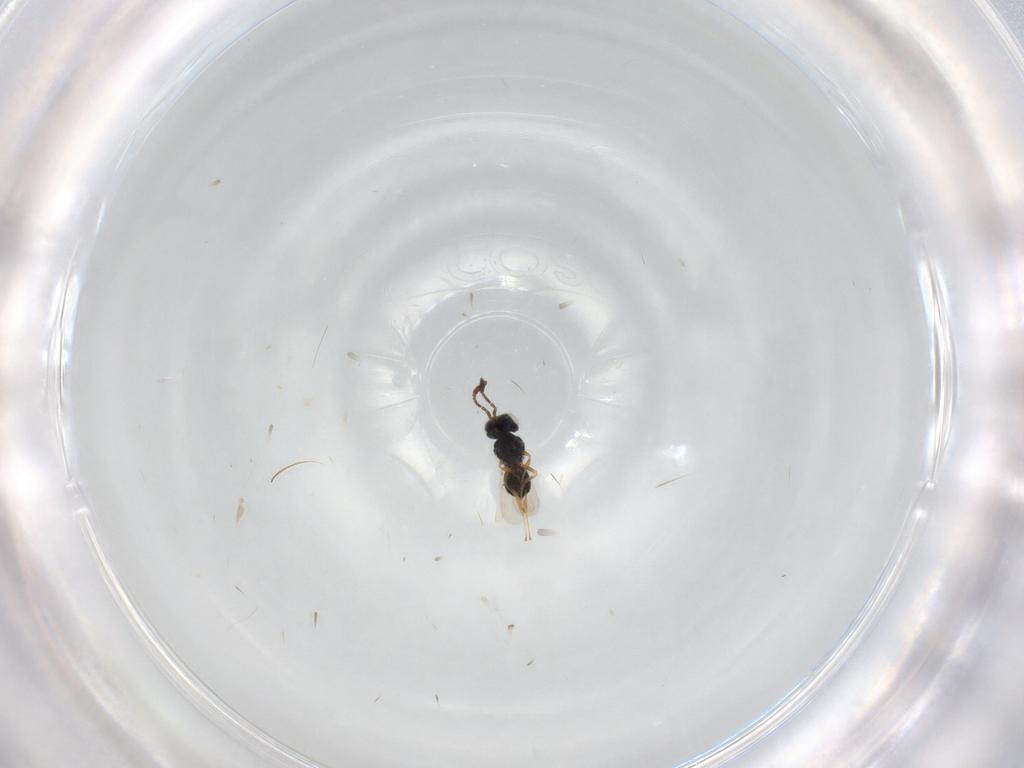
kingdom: Animalia
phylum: Arthropoda
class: Insecta
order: Hymenoptera
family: Scelionidae
